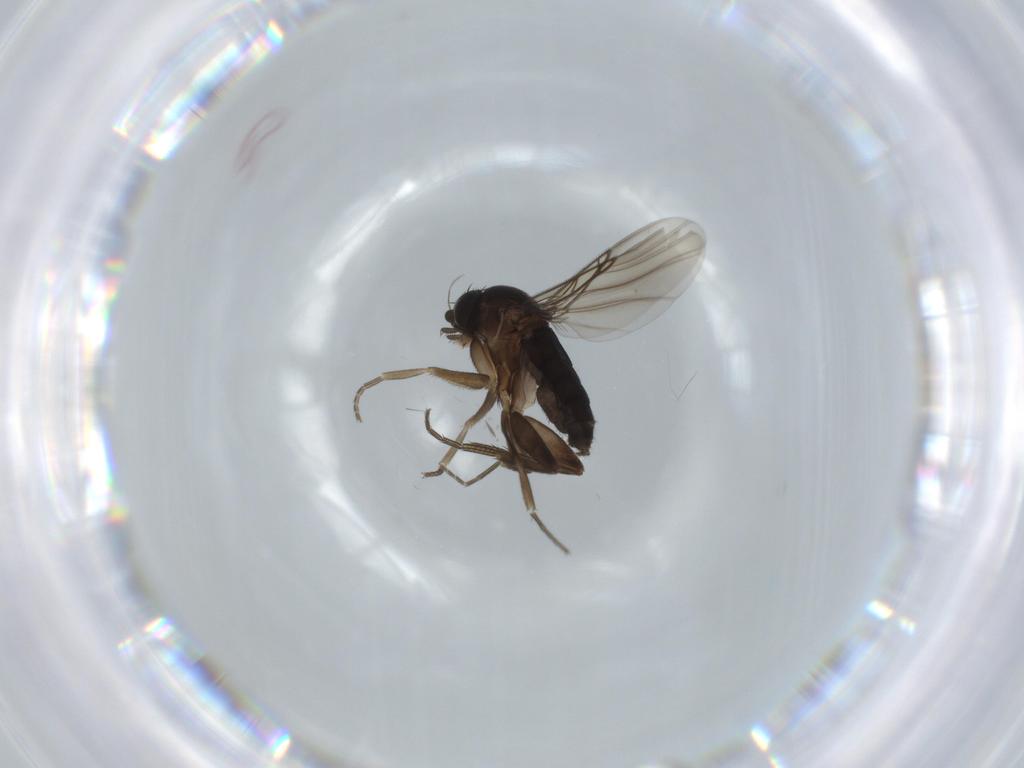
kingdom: Animalia
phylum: Arthropoda
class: Insecta
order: Diptera
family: Phoridae
